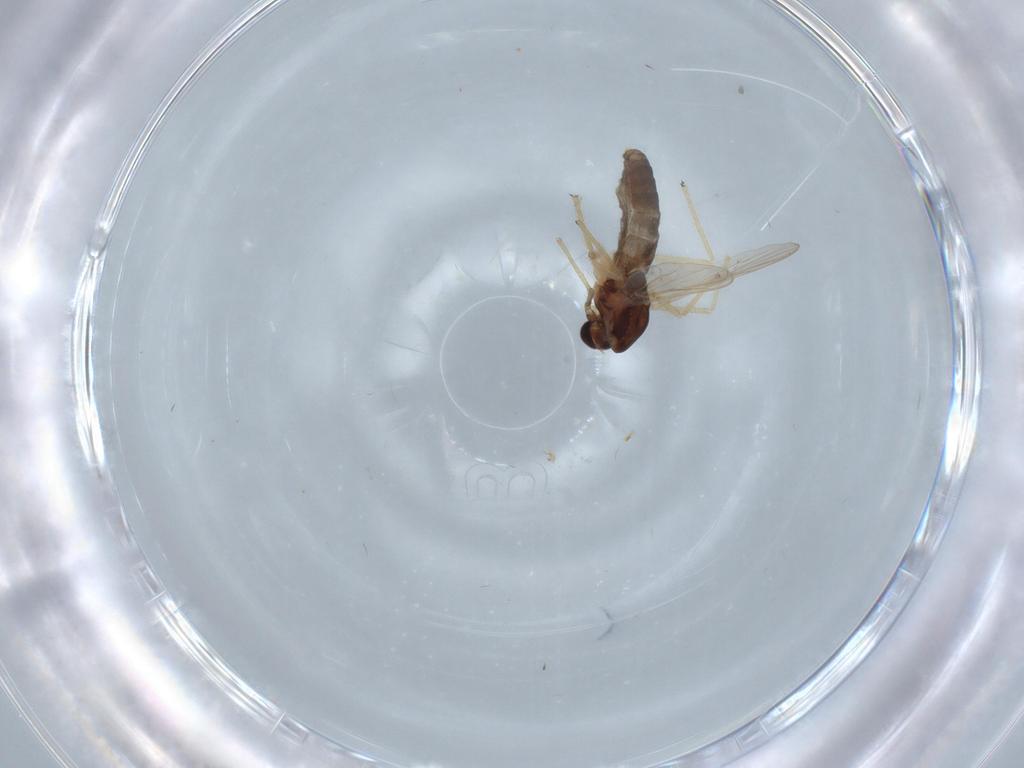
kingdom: Animalia
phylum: Arthropoda
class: Insecta
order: Diptera
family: Chironomidae
